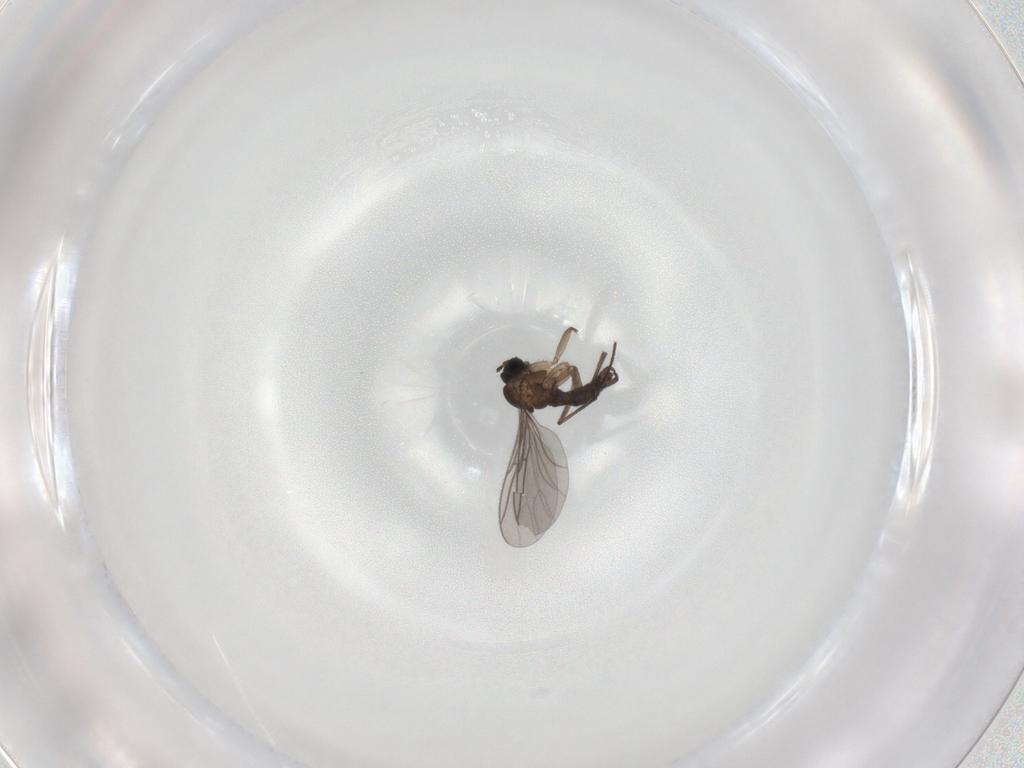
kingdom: Animalia
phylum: Arthropoda
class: Insecta
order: Diptera
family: Sciaridae
